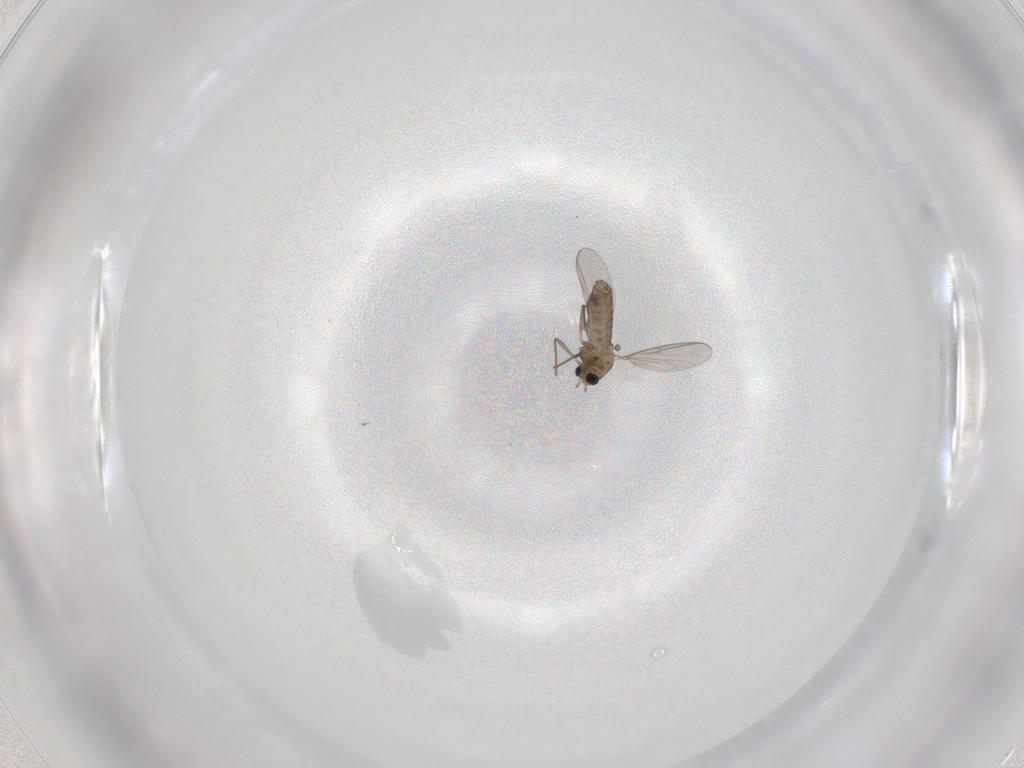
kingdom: Animalia
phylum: Arthropoda
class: Insecta
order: Diptera
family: Chironomidae
